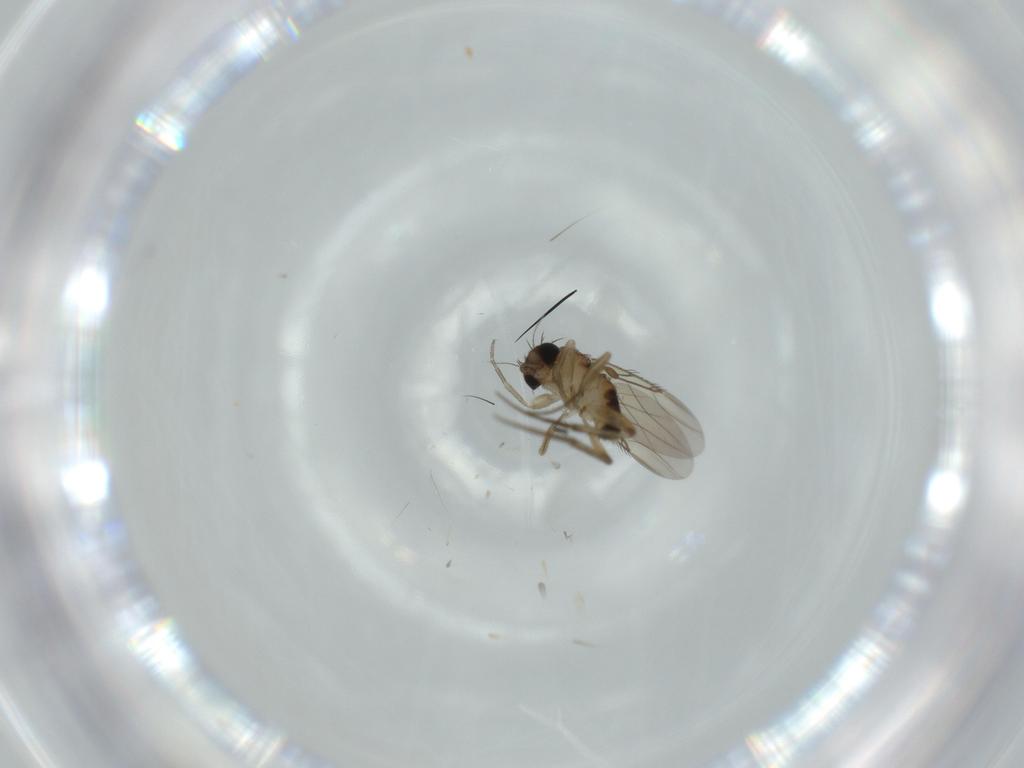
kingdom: Animalia
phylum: Arthropoda
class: Insecta
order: Diptera
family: Phoridae
